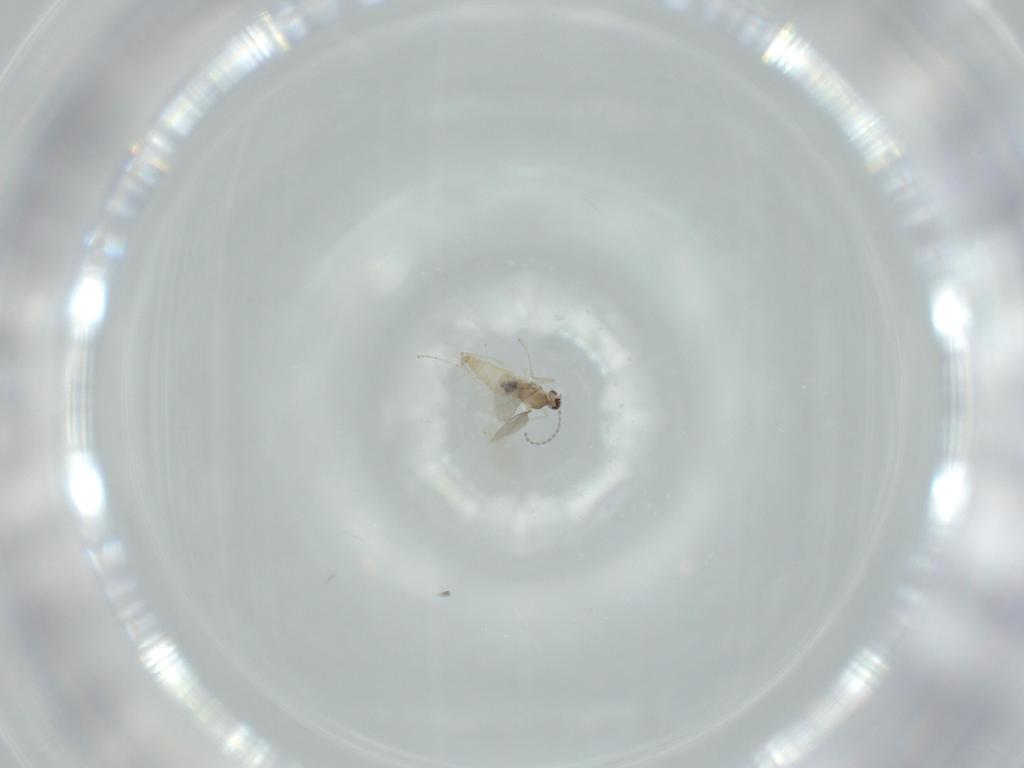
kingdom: Animalia
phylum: Arthropoda
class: Insecta
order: Diptera
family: Cecidomyiidae
